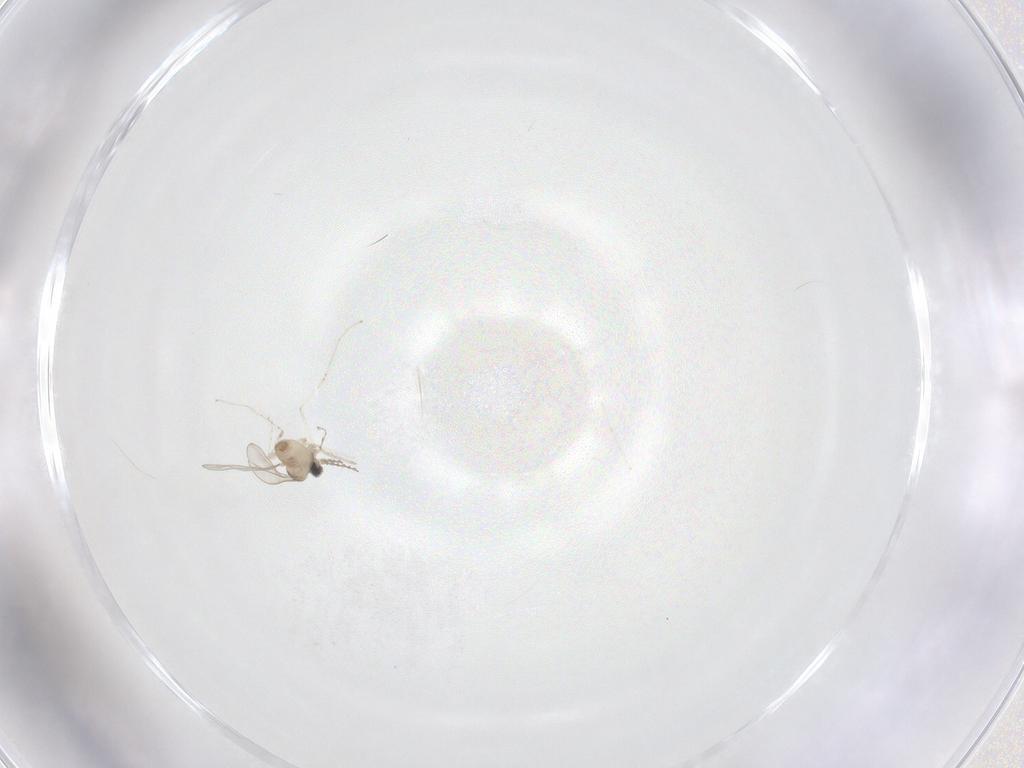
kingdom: Animalia
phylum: Arthropoda
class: Insecta
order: Diptera
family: Cecidomyiidae
